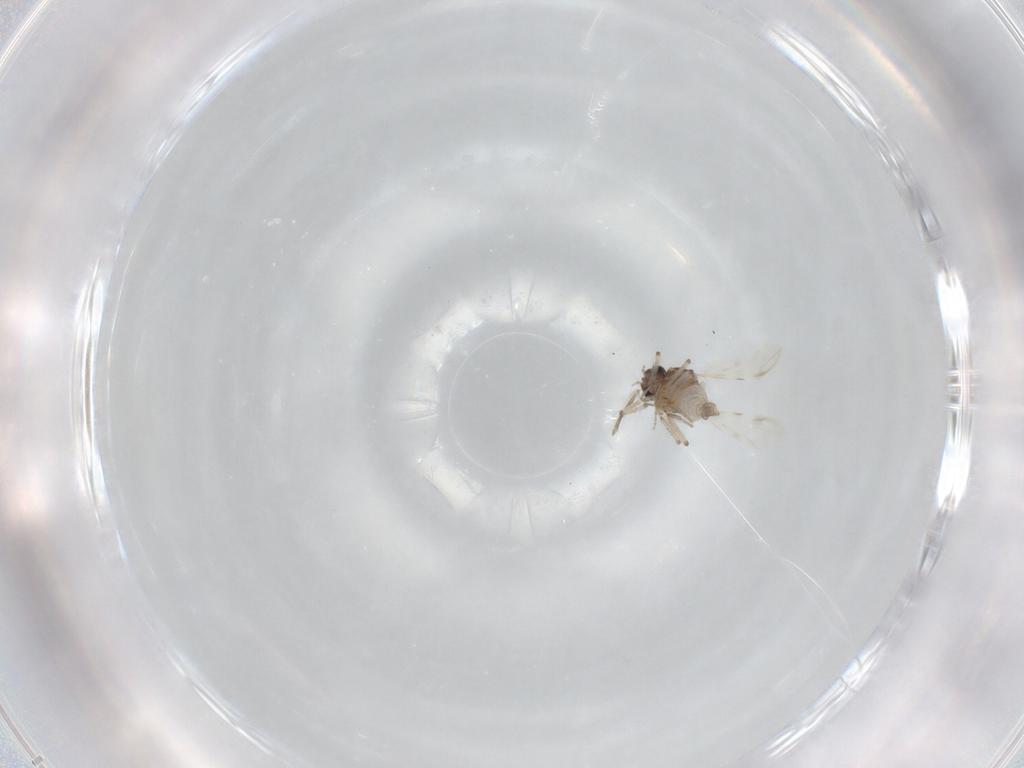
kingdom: Animalia
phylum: Arthropoda
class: Insecta
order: Diptera
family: Ceratopogonidae
